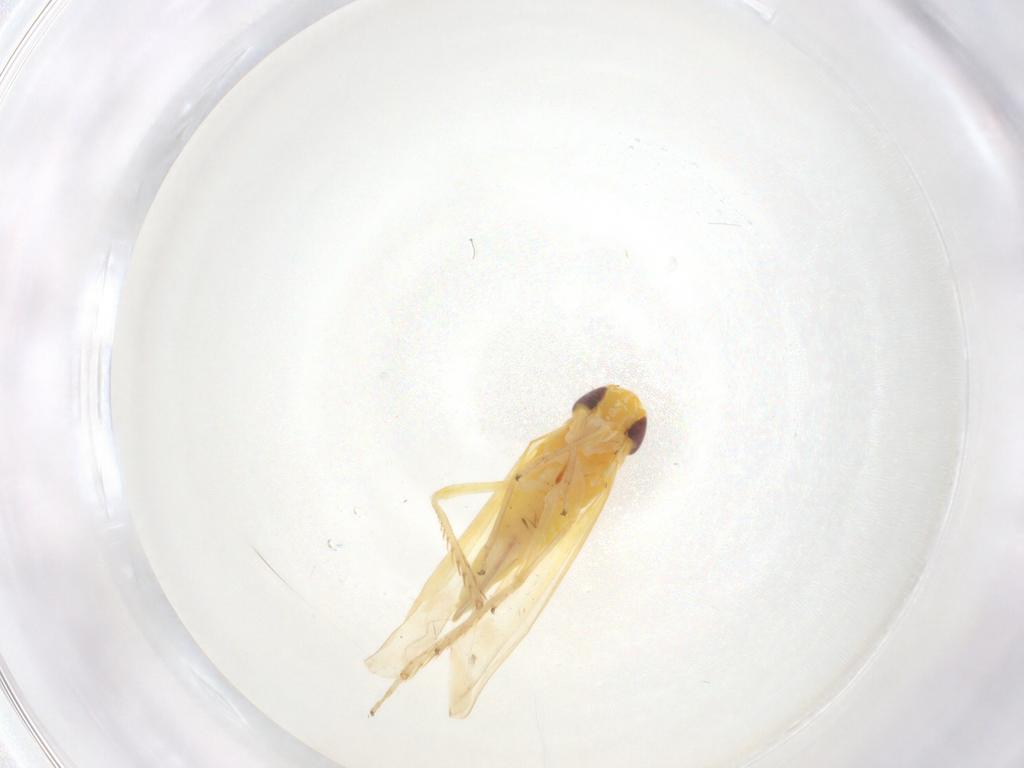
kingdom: Animalia
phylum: Arthropoda
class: Insecta
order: Hemiptera
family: Cicadellidae
